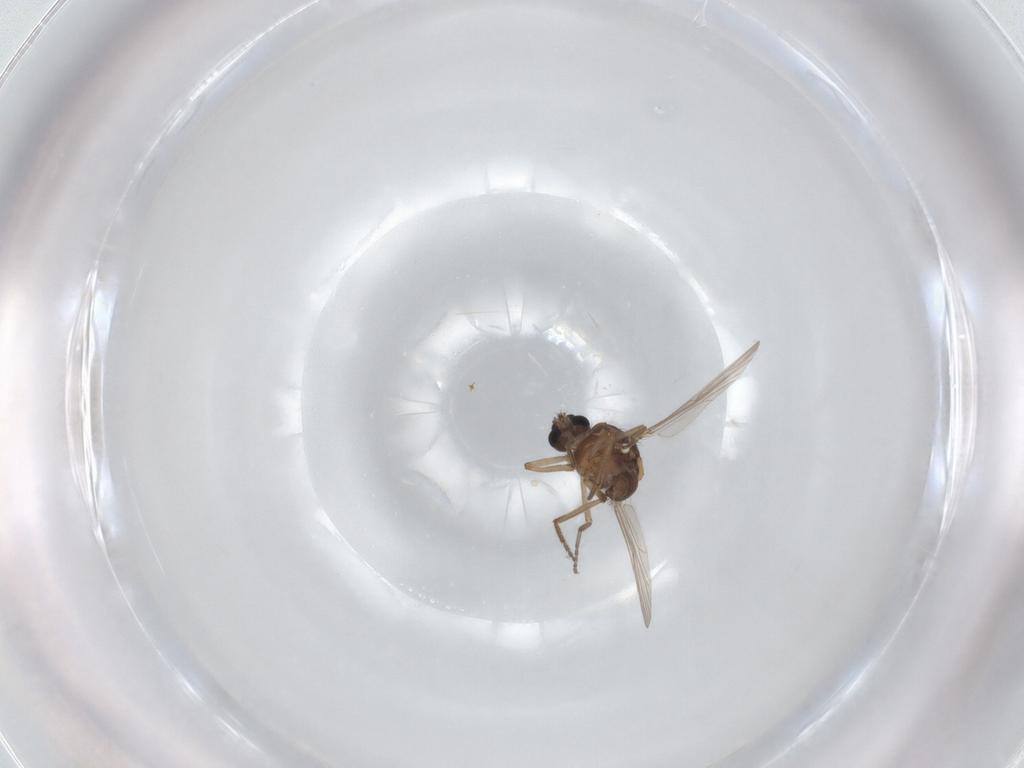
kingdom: Animalia
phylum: Arthropoda
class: Insecta
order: Diptera
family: Ceratopogonidae
